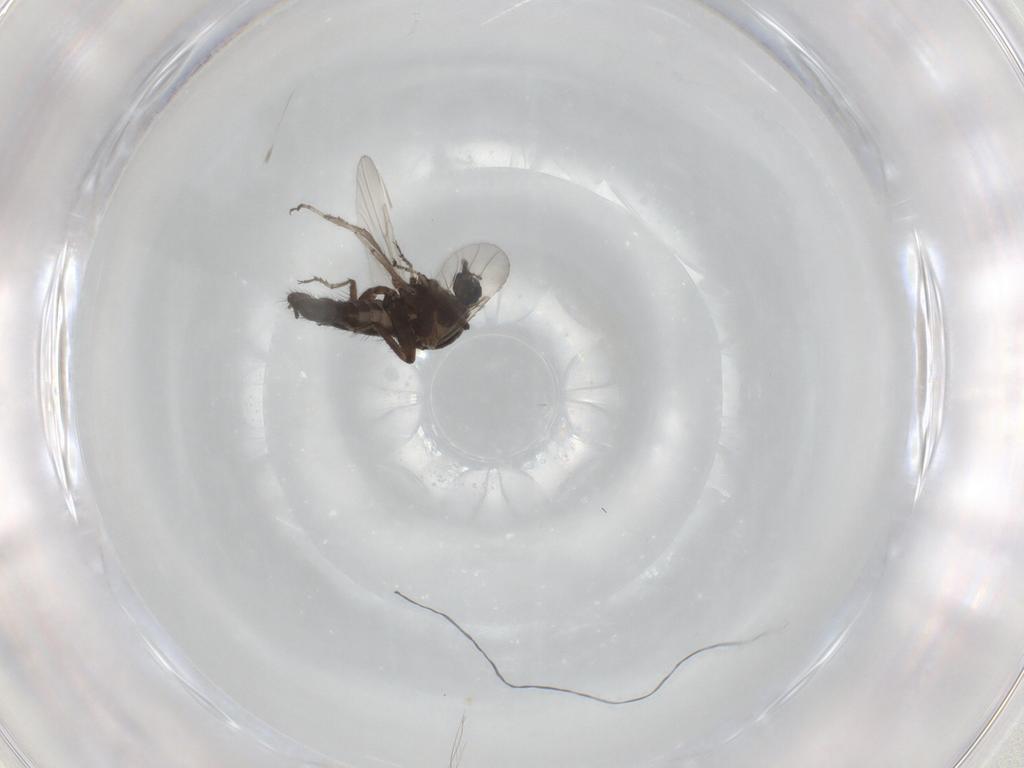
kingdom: Animalia
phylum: Arthropoda
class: Insecta
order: Diptera
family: Ceratopogonidae
